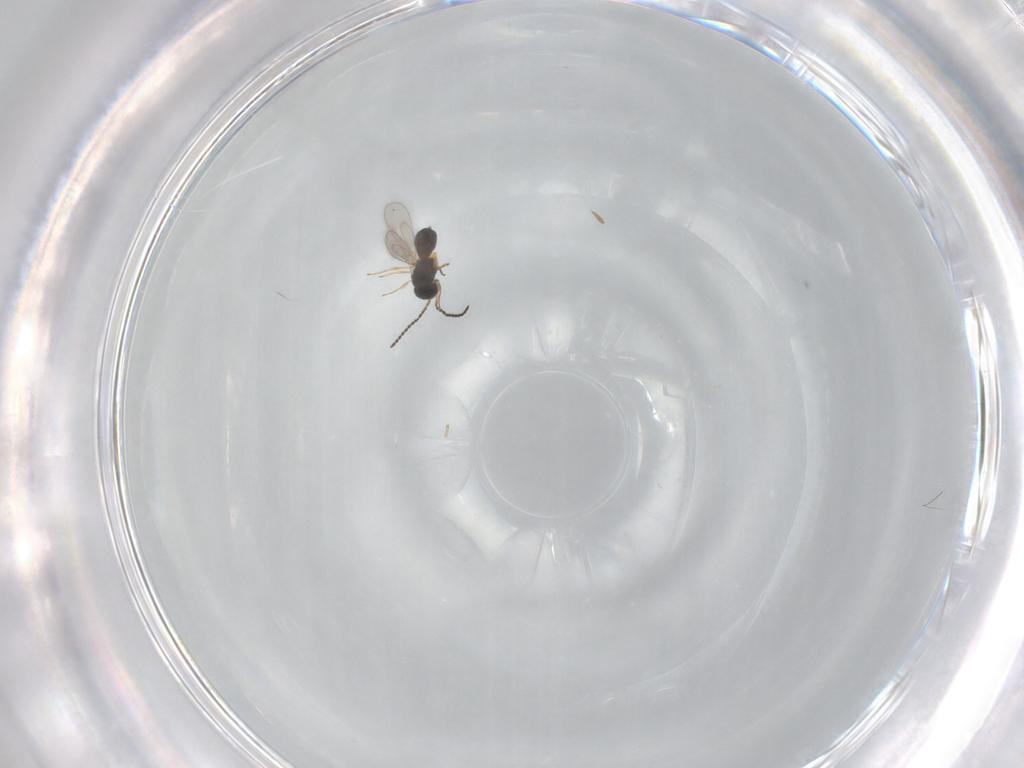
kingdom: Animalia
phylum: Arthropoda
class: Insecta
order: Hymenoptera
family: Scelionidae
